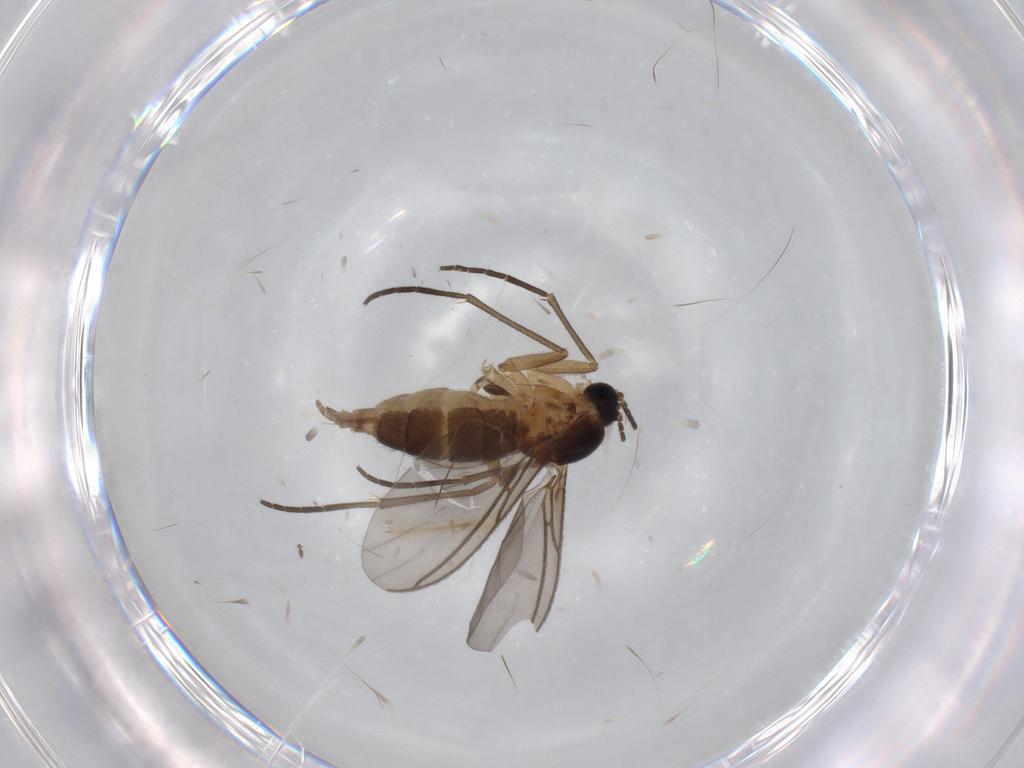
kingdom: Animalia
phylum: Arthropoda
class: Insecta
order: Diptera
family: Sciaridae
